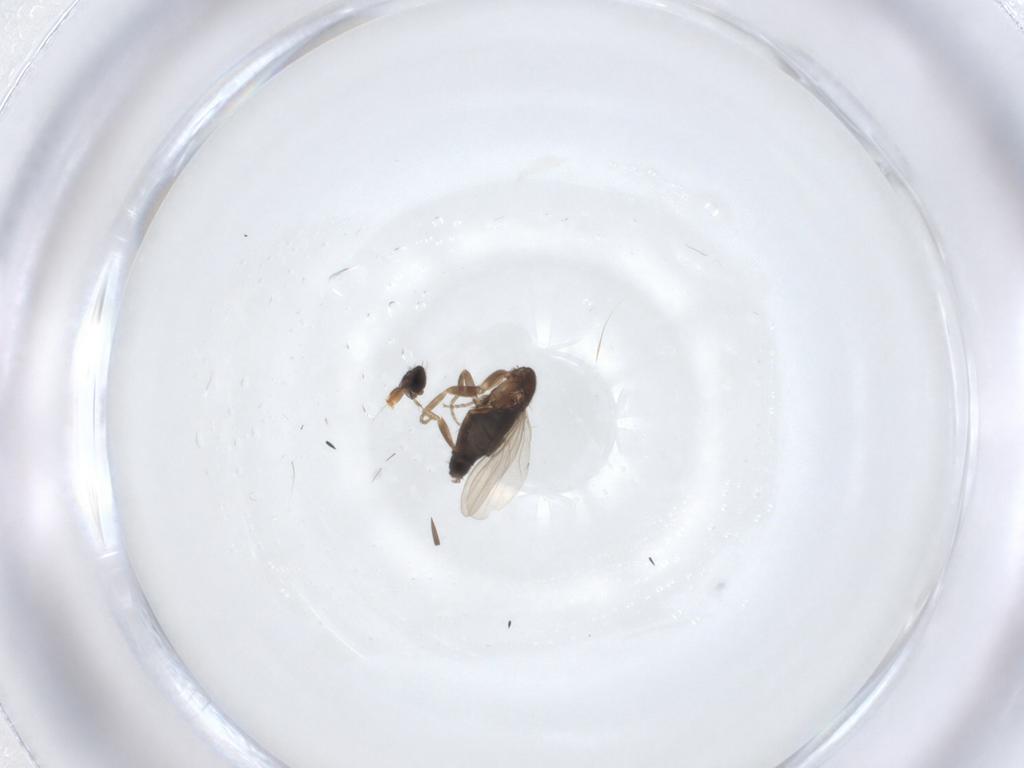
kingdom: Animalia
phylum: Arthropoda
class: Insecta
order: Diptera
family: Phoridae
